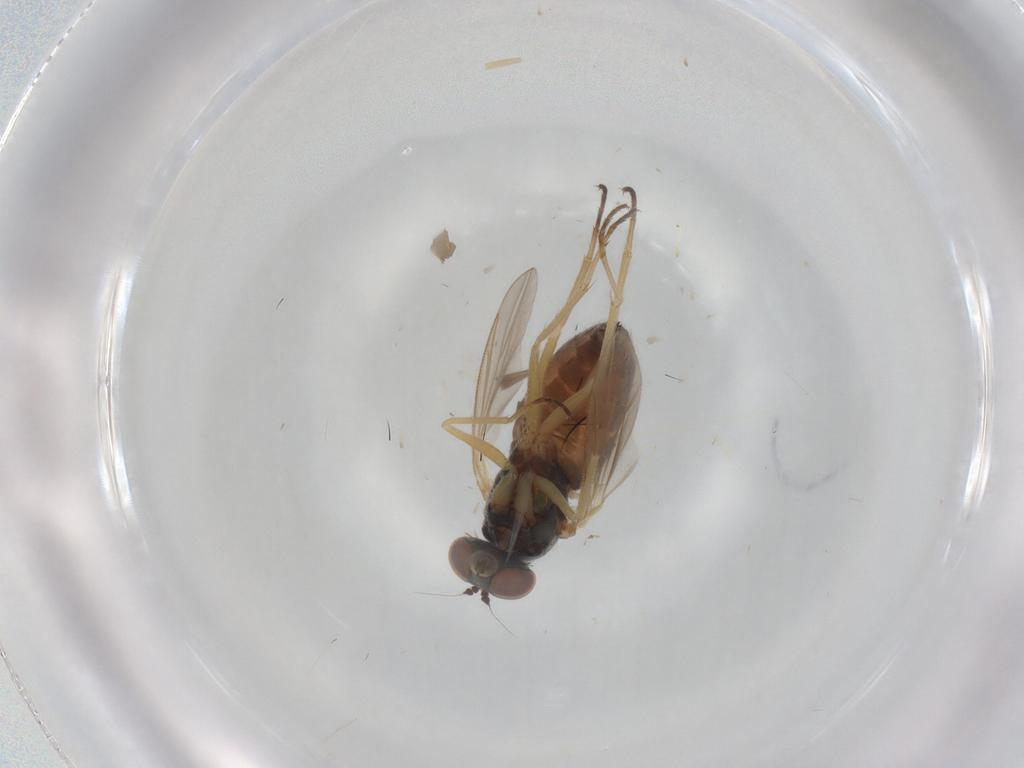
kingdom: Animalia
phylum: Arthropoda
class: Insecta
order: Diptera
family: Dolichopodidae
